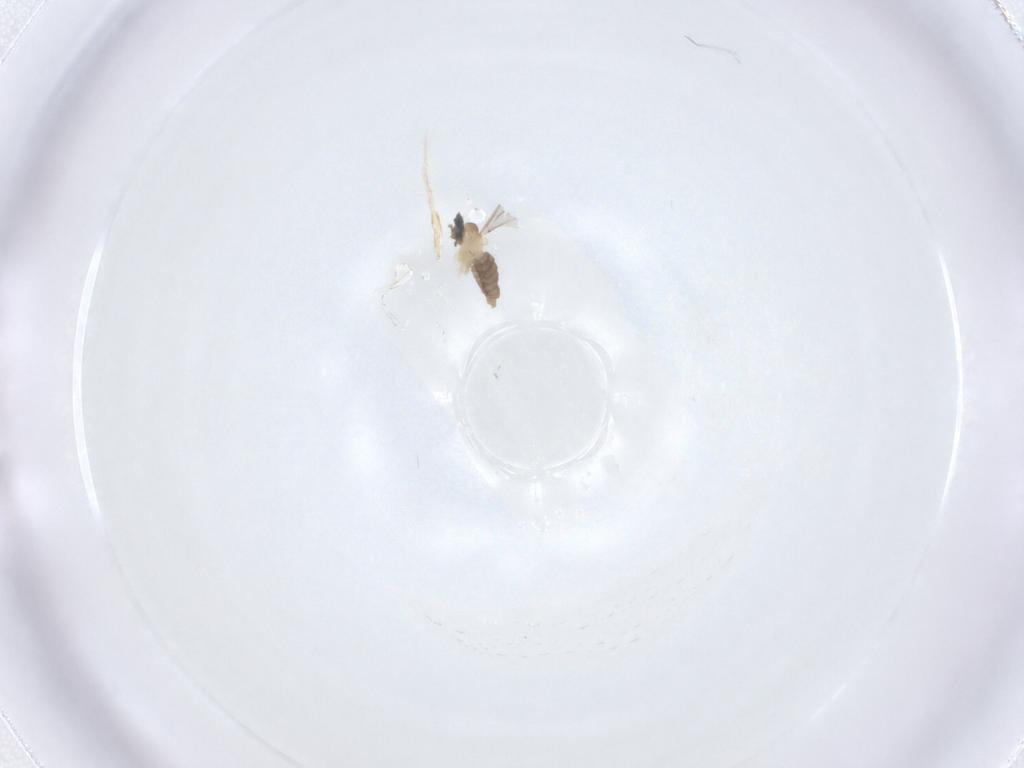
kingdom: Animalia
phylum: Arthropoda
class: Insecta
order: Diptera
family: Cecidomyiidae
